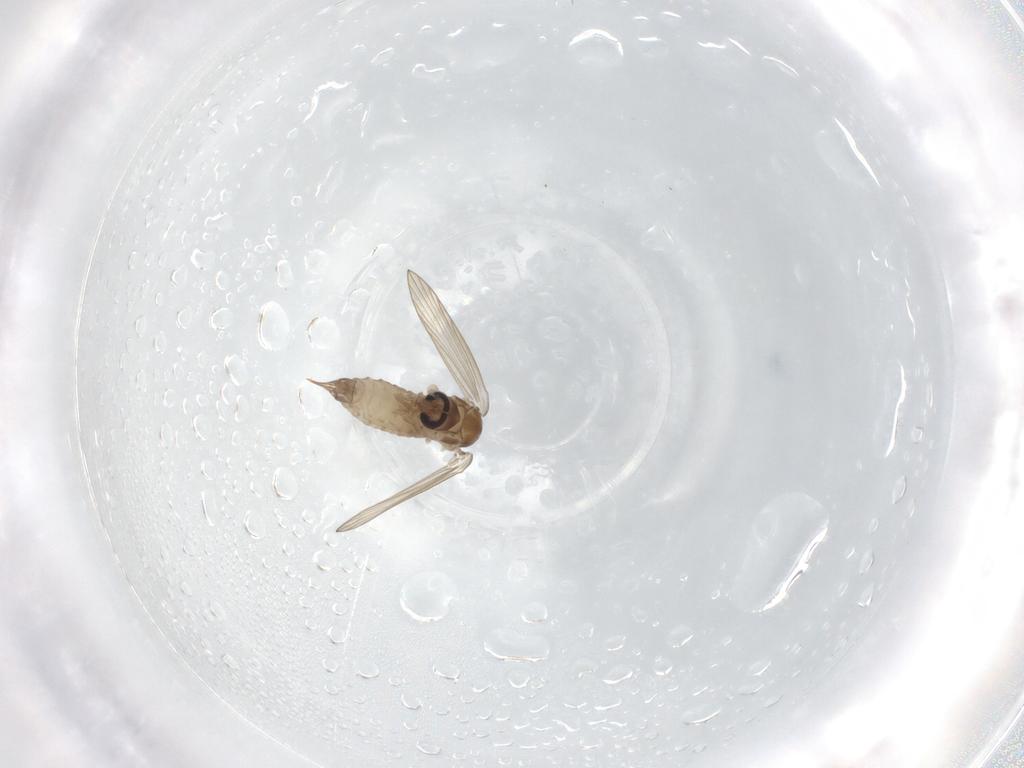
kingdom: Animalia
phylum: Arthropoda
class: Insecta
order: Diptera
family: Psychodidae
